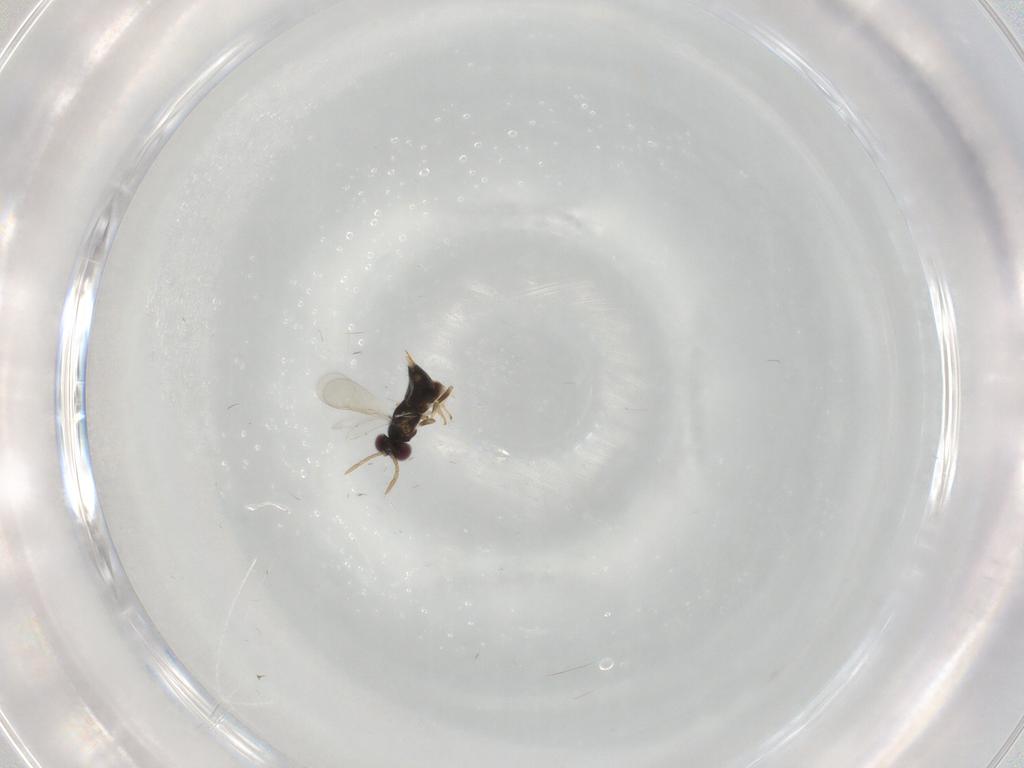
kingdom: Animalia
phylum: Arthropoda
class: Insecta
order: Hymenoptera
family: Aphelinidae
